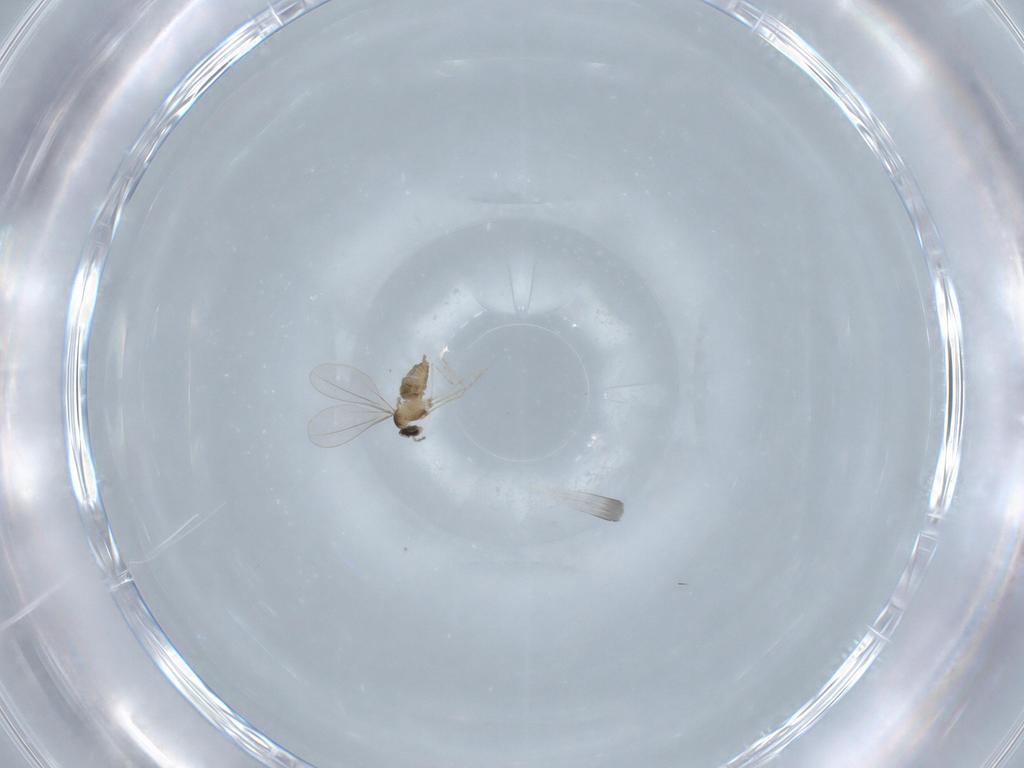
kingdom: Animalia
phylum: Arthropoda
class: Insecta
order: Diptera
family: Cecidomyiidae
